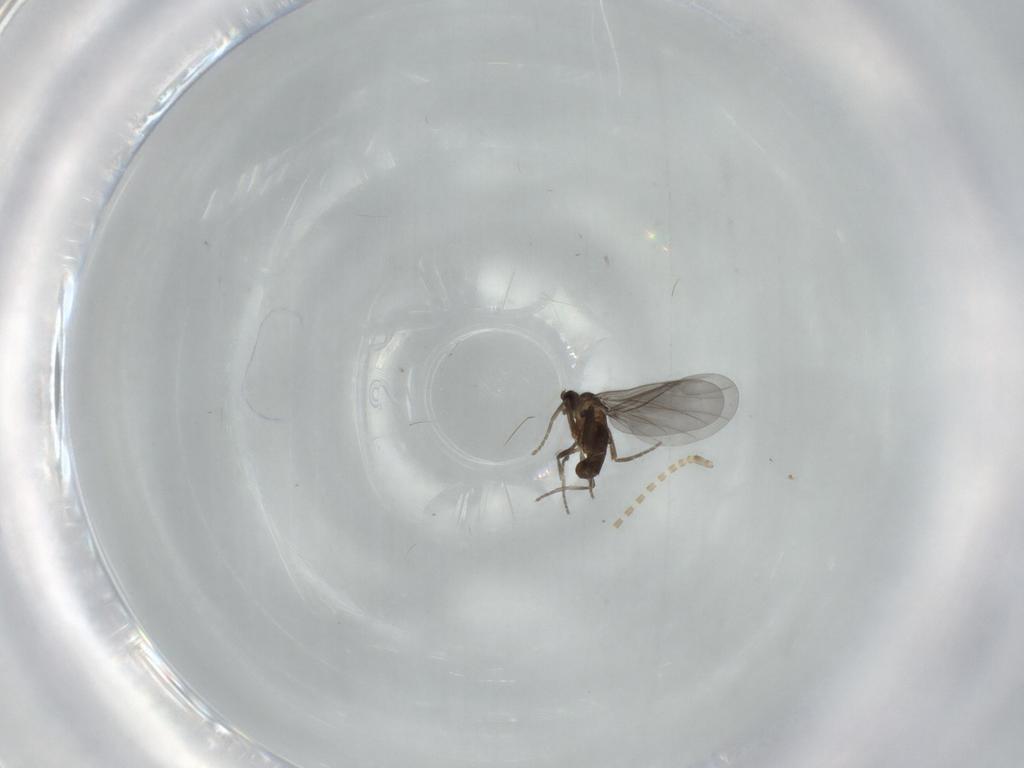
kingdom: Animalia
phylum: Arthropoda
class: Insecta
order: Diptera
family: Phoridae
